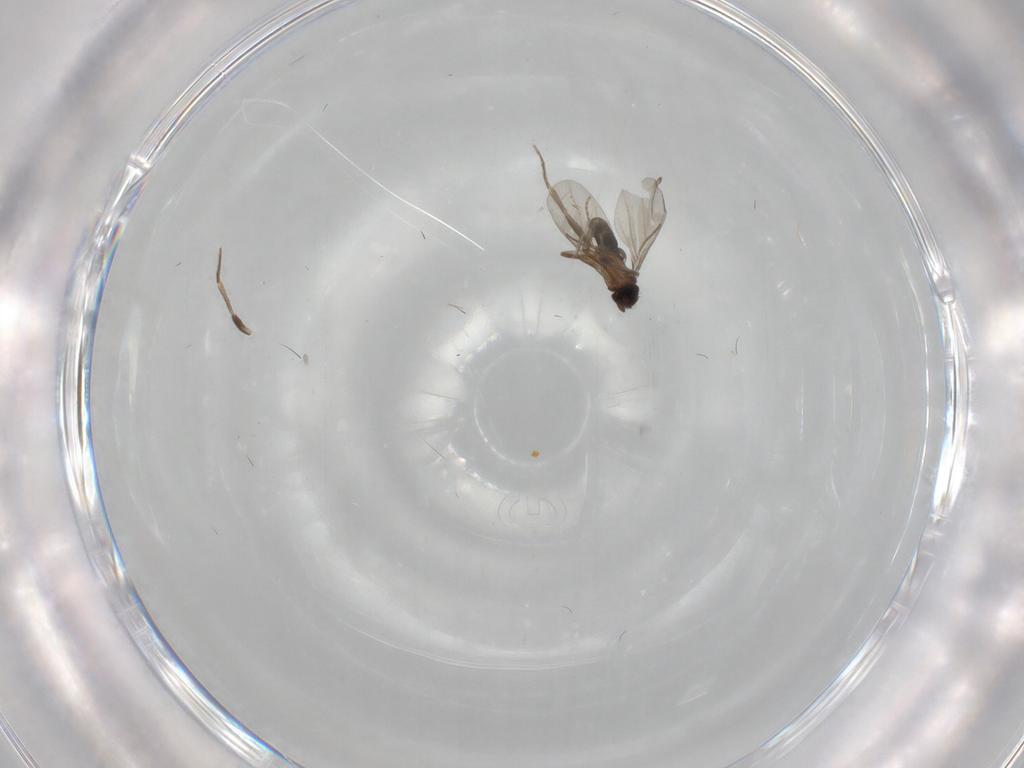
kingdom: Animalia
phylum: Arthropoda
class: Insecta
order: Diptera
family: Ephydridae
